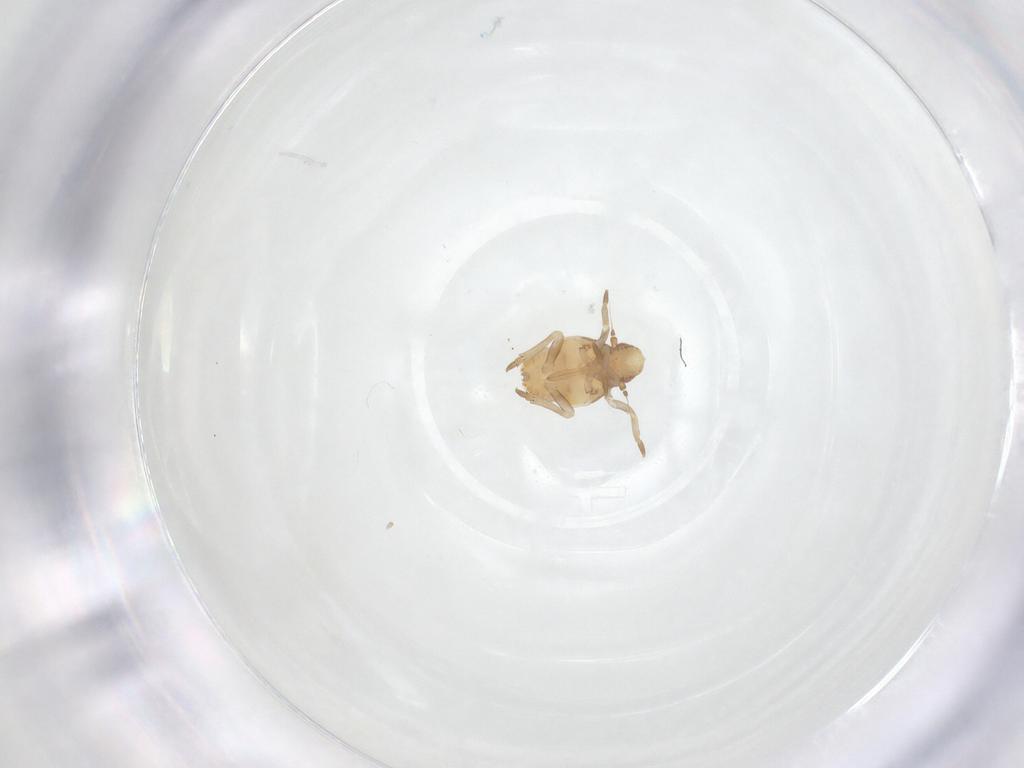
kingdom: Animalia
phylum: Arthropoda
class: Insecta
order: Hemiptera
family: Flatidae
